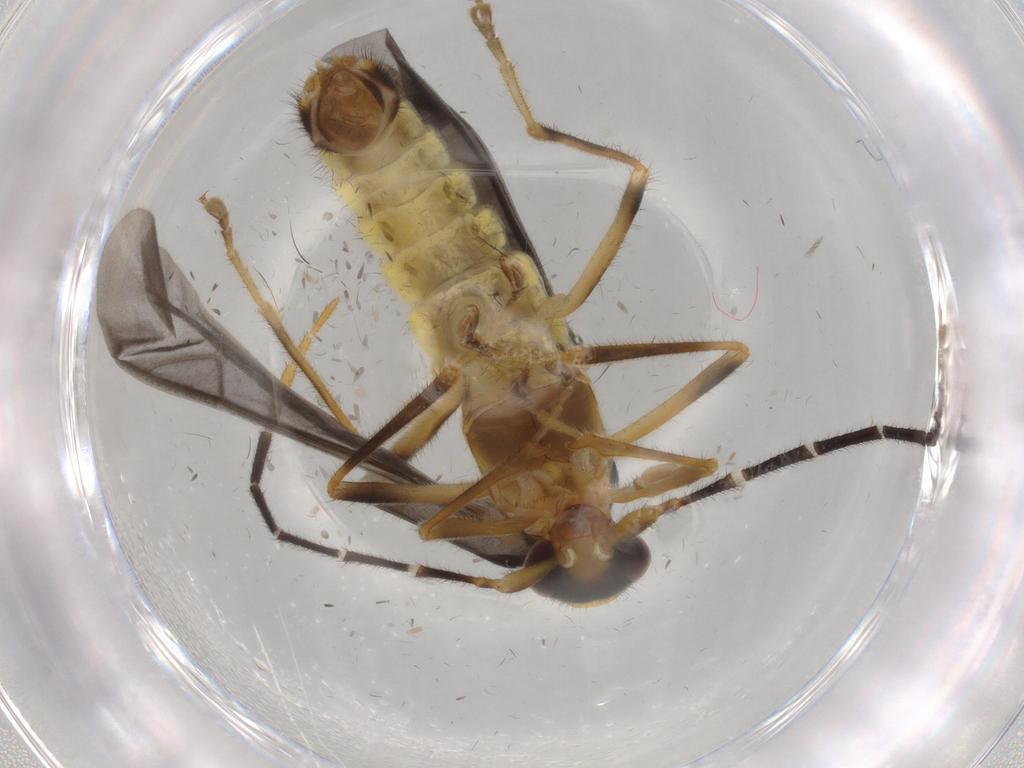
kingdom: Animalia
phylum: Arthropoda
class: Insecta
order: Coleoptera
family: Cantharidae
